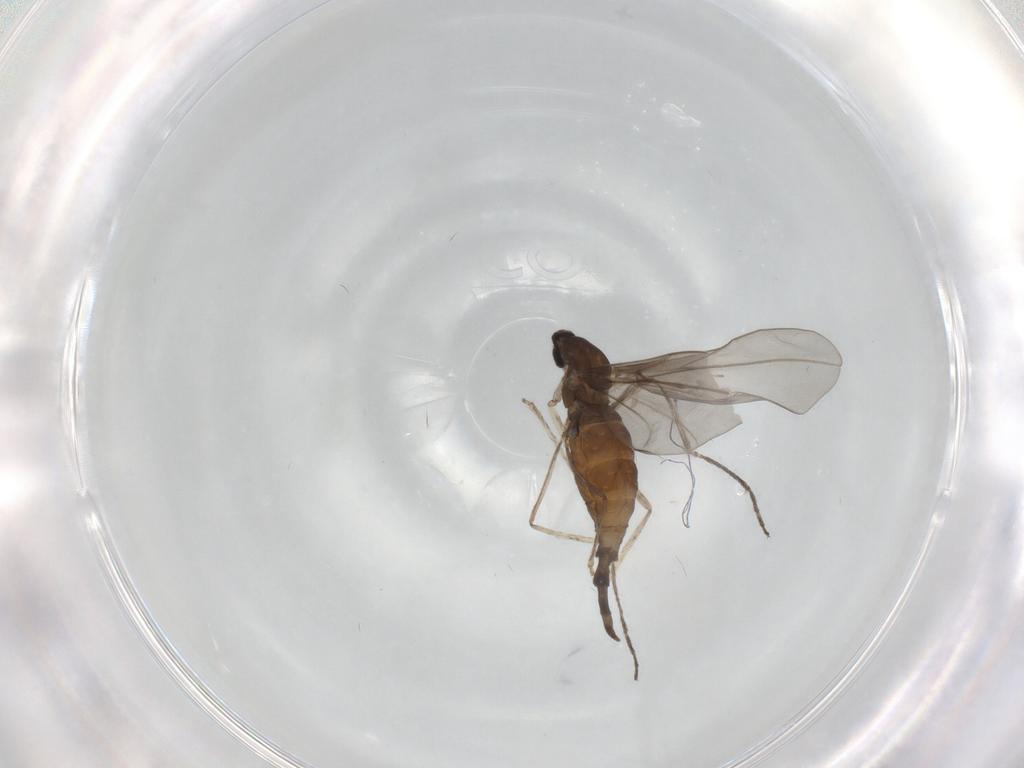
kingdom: Animalia
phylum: Arthropoda
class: Insecta
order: Diptera
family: Cecidomyiidae
